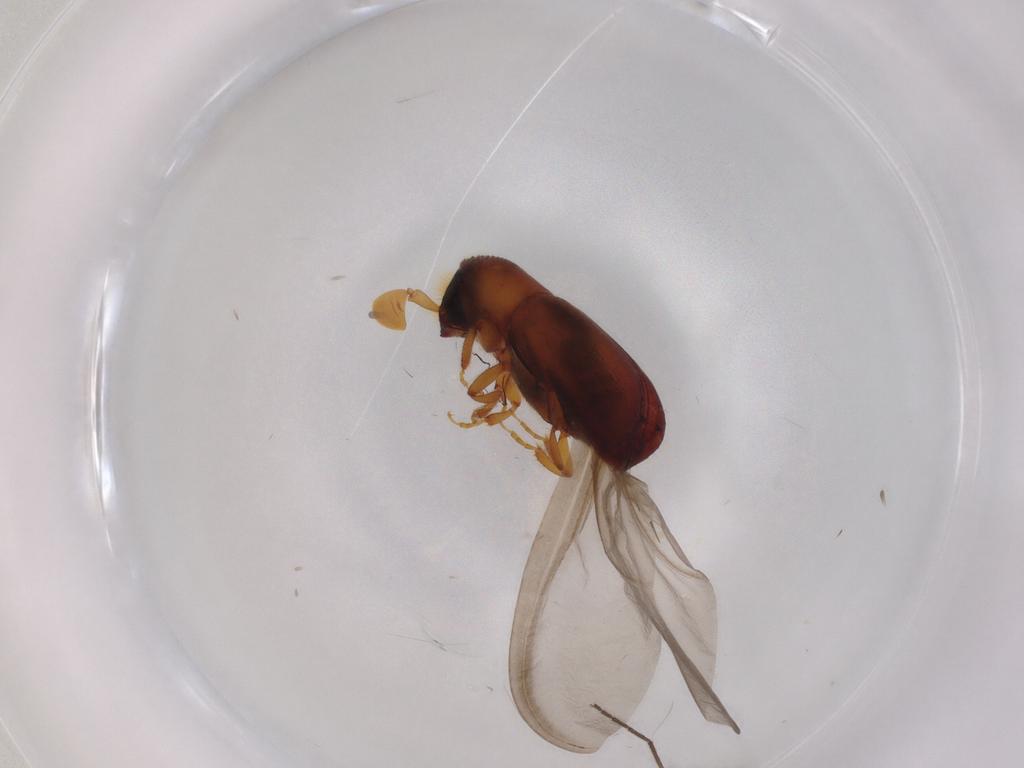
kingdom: Animalia
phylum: Arthropoda
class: Insecta
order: Coleoptera
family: Curculionidae
